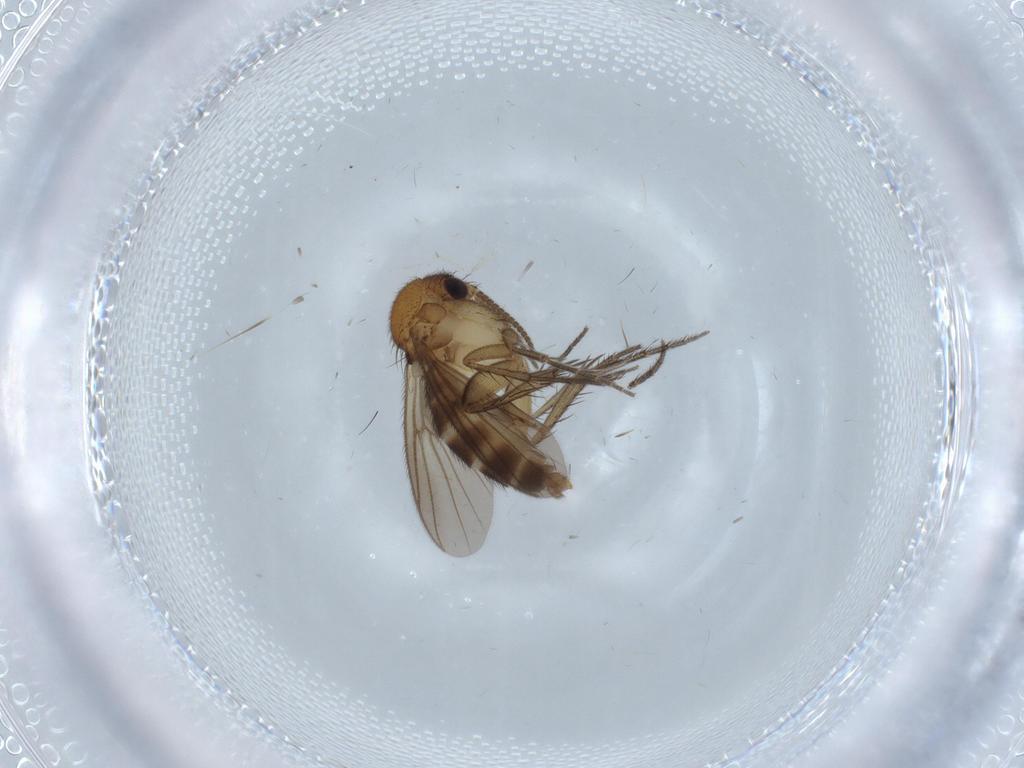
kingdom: Animalia
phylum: Arthropoda
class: Insecta
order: Diptera
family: Mycetophilidae
